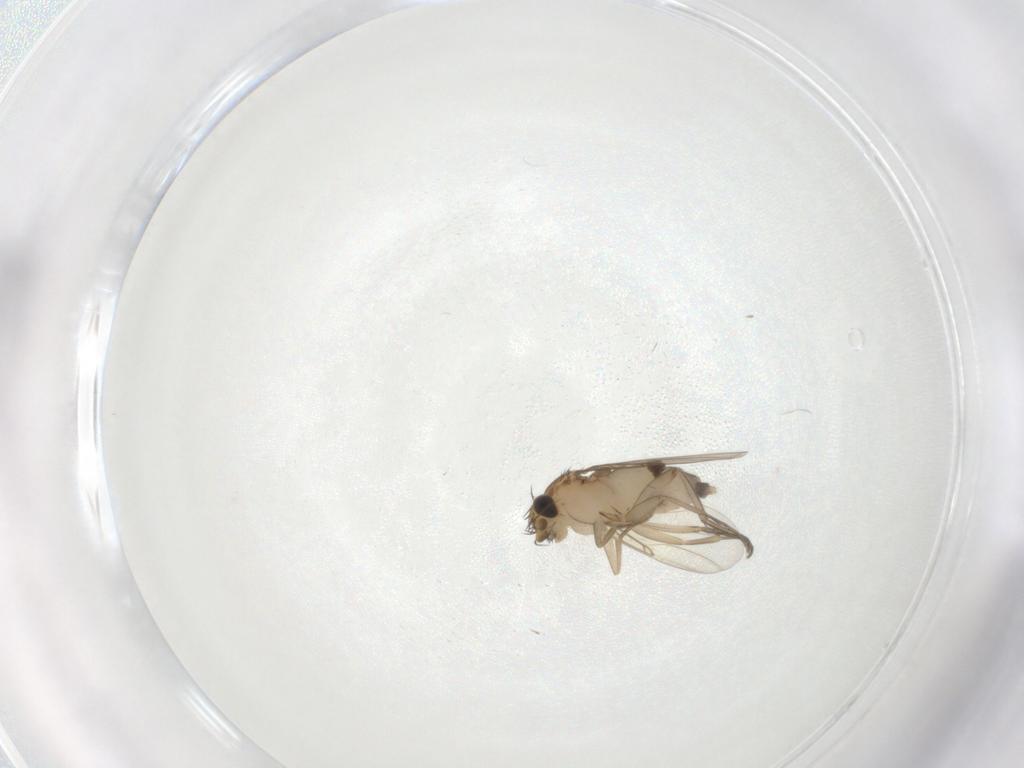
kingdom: Animalia
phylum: Arthropoda
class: Insecta
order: Diptera
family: Phoridae
